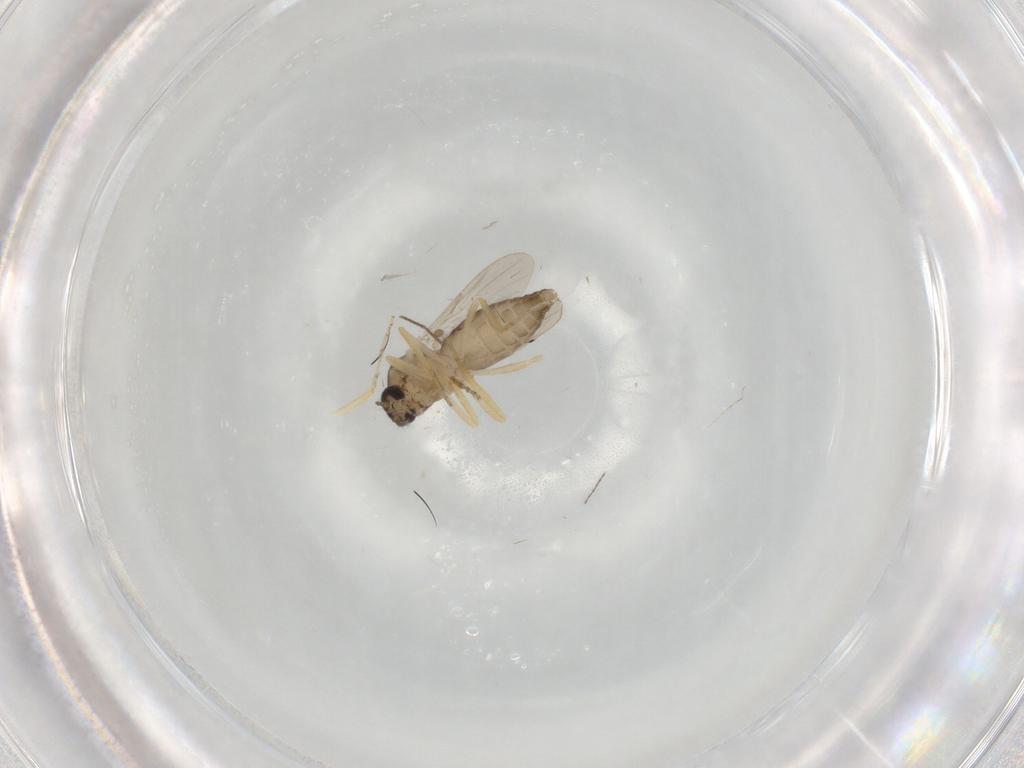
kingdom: Animalia
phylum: Arthropoda
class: Insecta
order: Diptera
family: Ceratopogonidae
